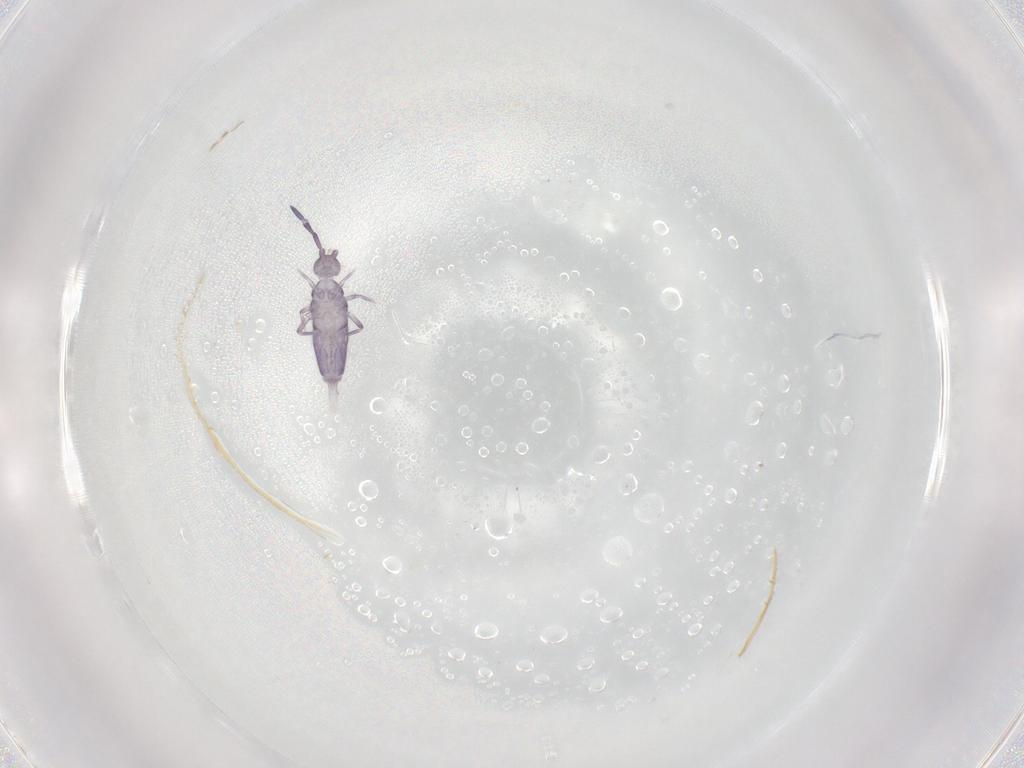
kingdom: Animalia
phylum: Arthropoda
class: Collembola
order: Entomobryomorpha
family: Entomobryidae
